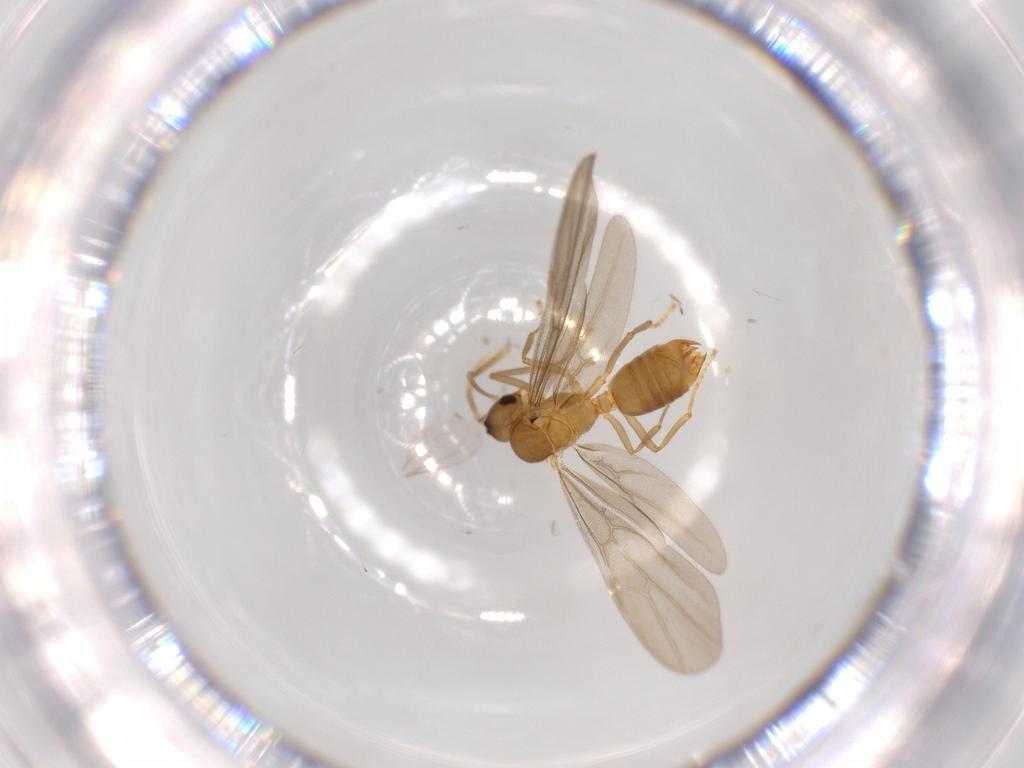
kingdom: Animalia
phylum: Arthropoda
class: Insecta
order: Hymenoptera
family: Formicidae
